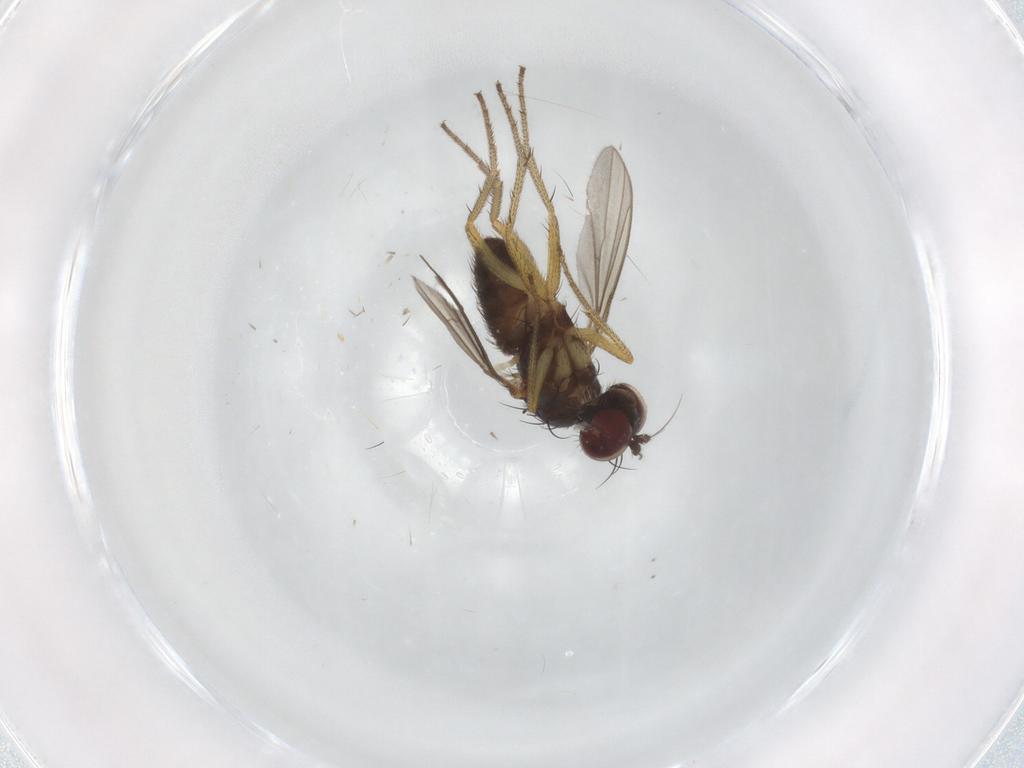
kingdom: Animalia
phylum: Arthropoda
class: Insecta
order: Diptera
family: Dolichopodidae
